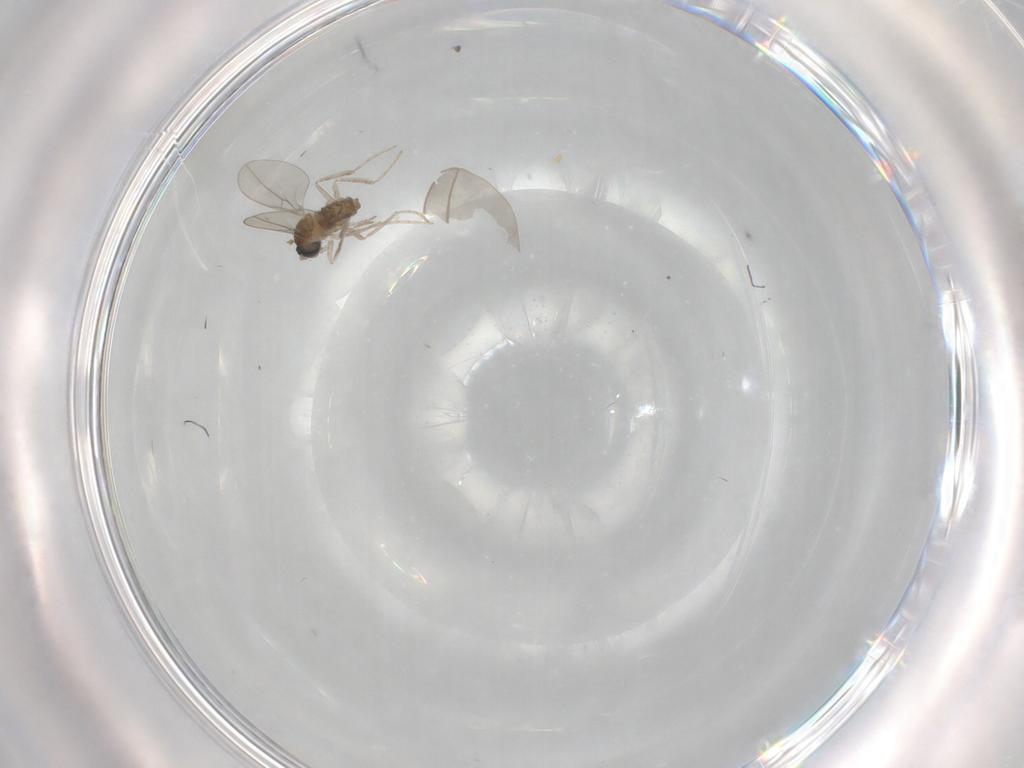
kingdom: Animalia
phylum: Arthropoda
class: Insecta
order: Diptera
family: Cecidomyiidae
